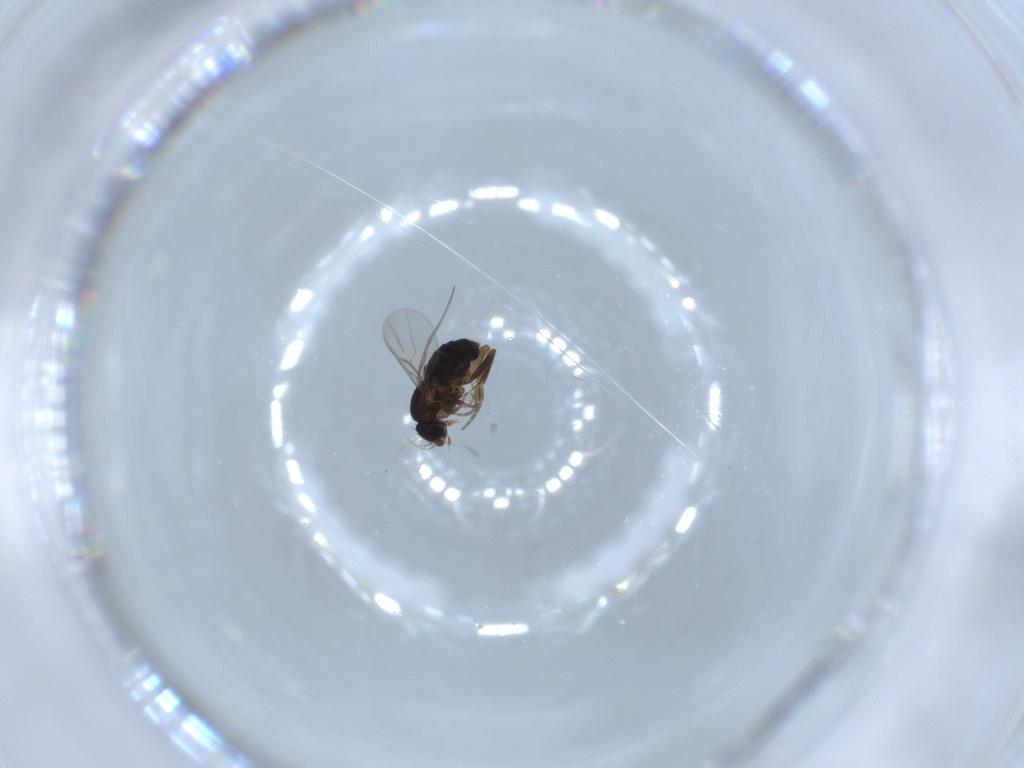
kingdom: Animalia
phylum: Arthropoda
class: Insecta
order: Diptera
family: Phoridae
